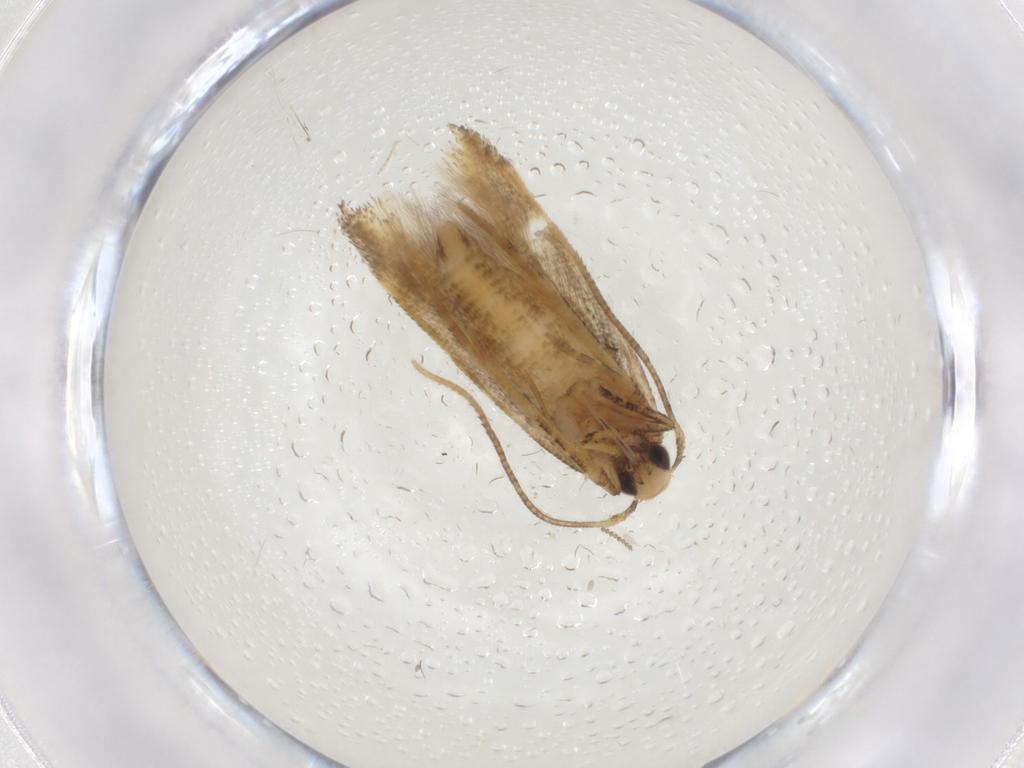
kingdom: Animalia
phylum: Arthropoda
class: Insecta
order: Lepidoptera
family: Cosmopterigidae
